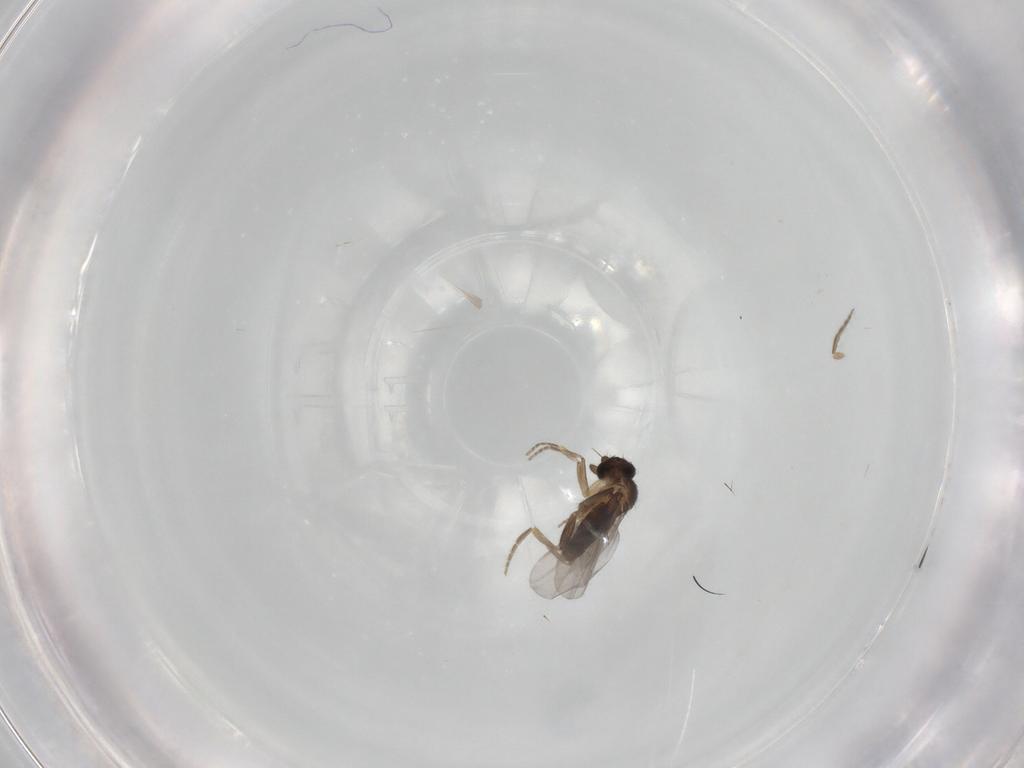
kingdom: Animalia
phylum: Arthropoda
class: Insecta
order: Diptera
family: Ceratopogonidae
